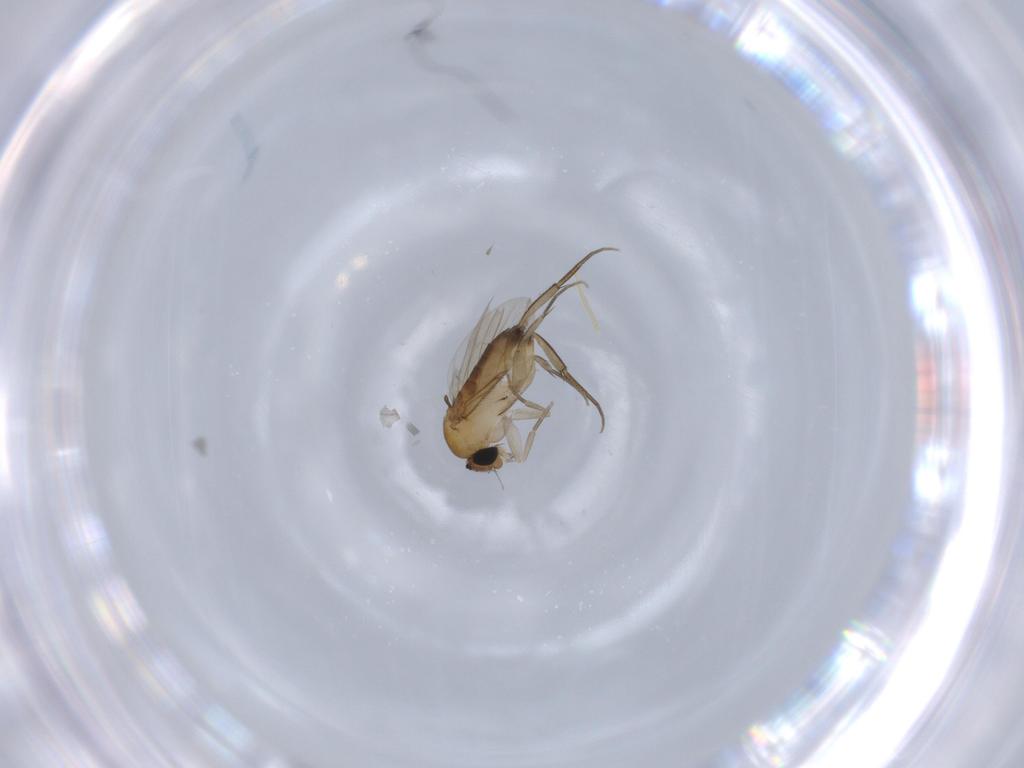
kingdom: Animalia
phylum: Arthropoda
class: Insecta
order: Diptera
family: Phoridae
